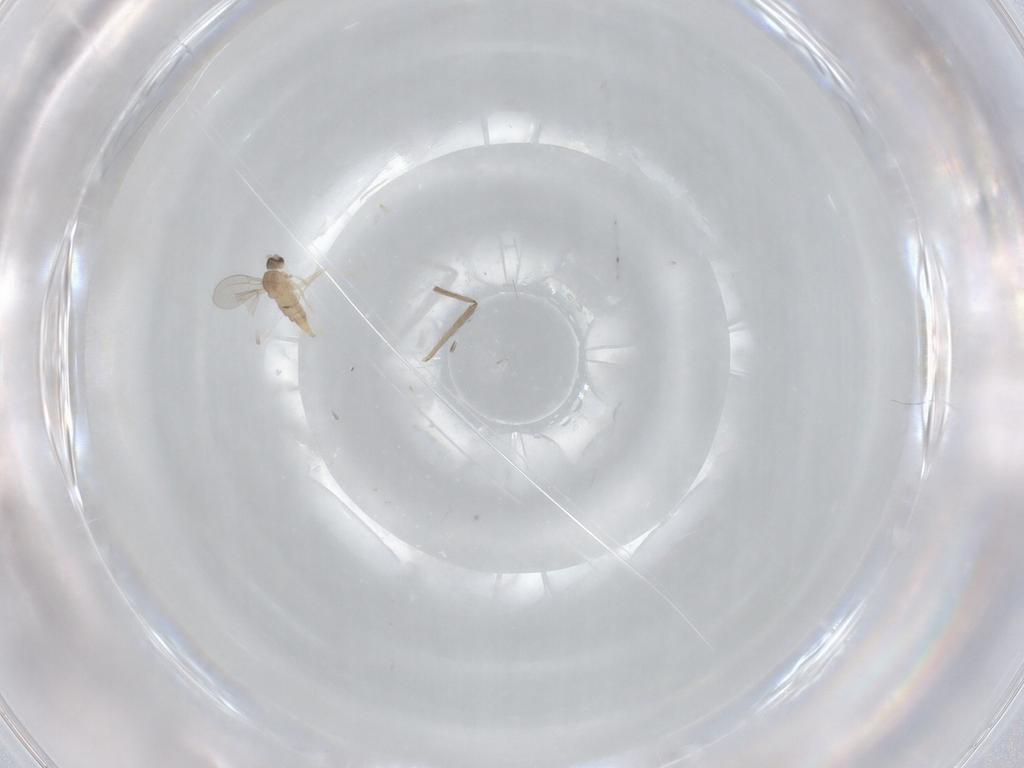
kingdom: Animalia
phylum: Arthropoda
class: Insecta
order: Diptera
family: Cecidomyiidae
